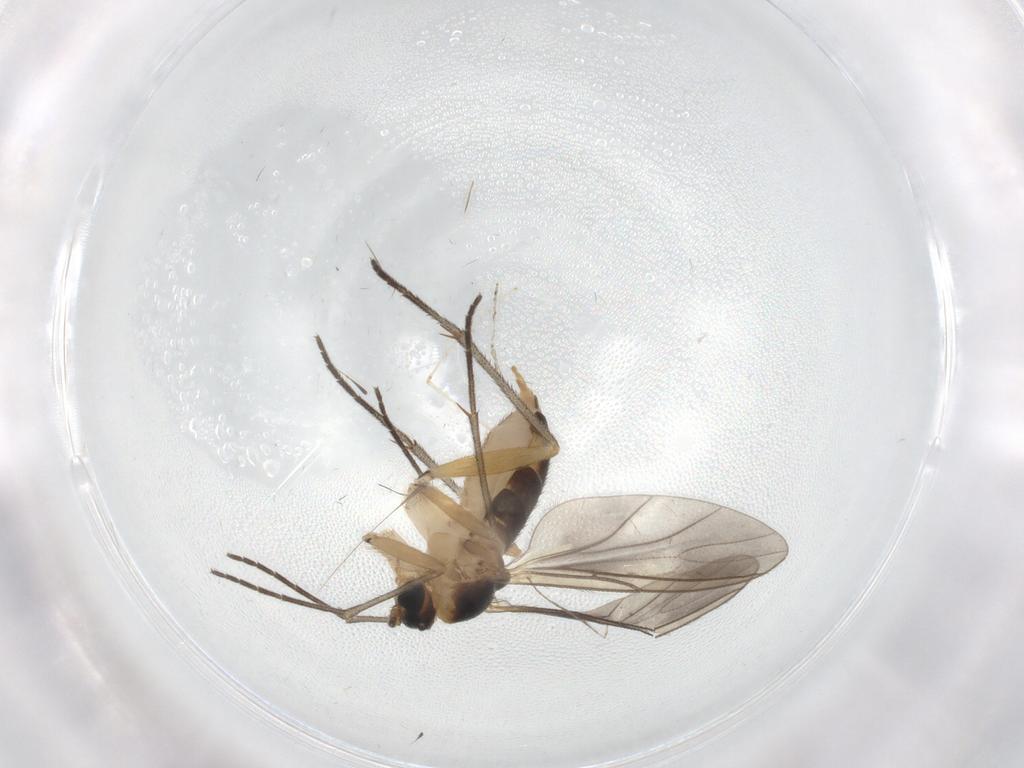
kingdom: Animalia
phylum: Arthropoda
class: Insecta
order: Diptera
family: Sciaridae
